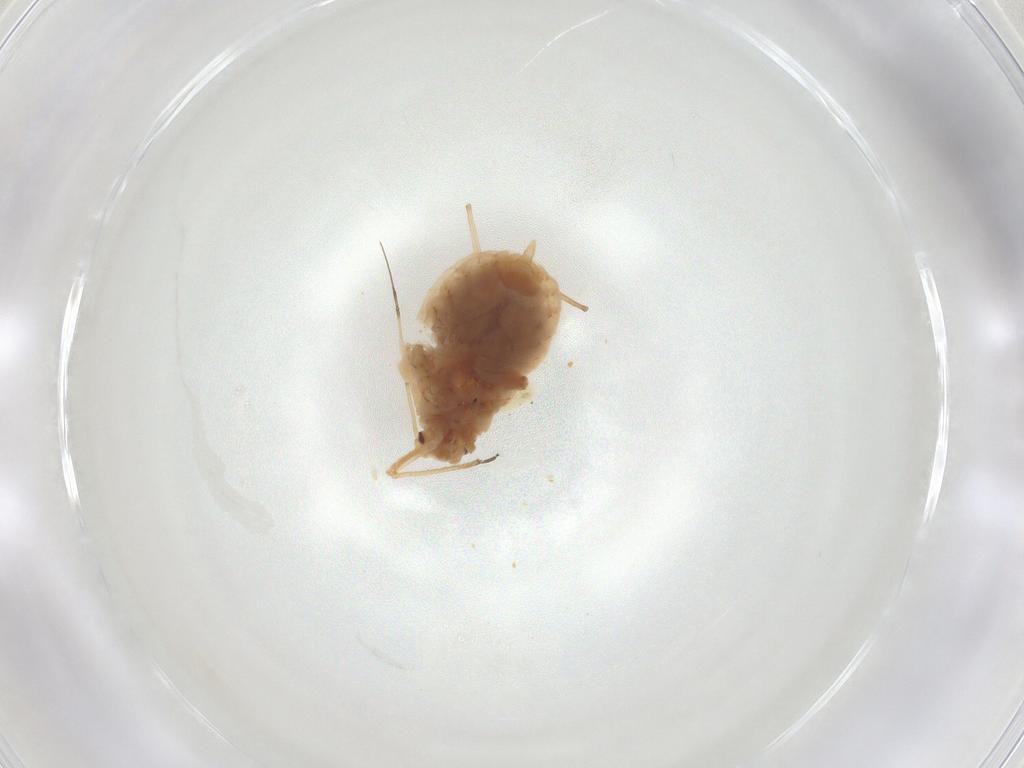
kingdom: Animalia
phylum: Arthropoda
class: Insecta
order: Hemiptera
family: Aphididae
